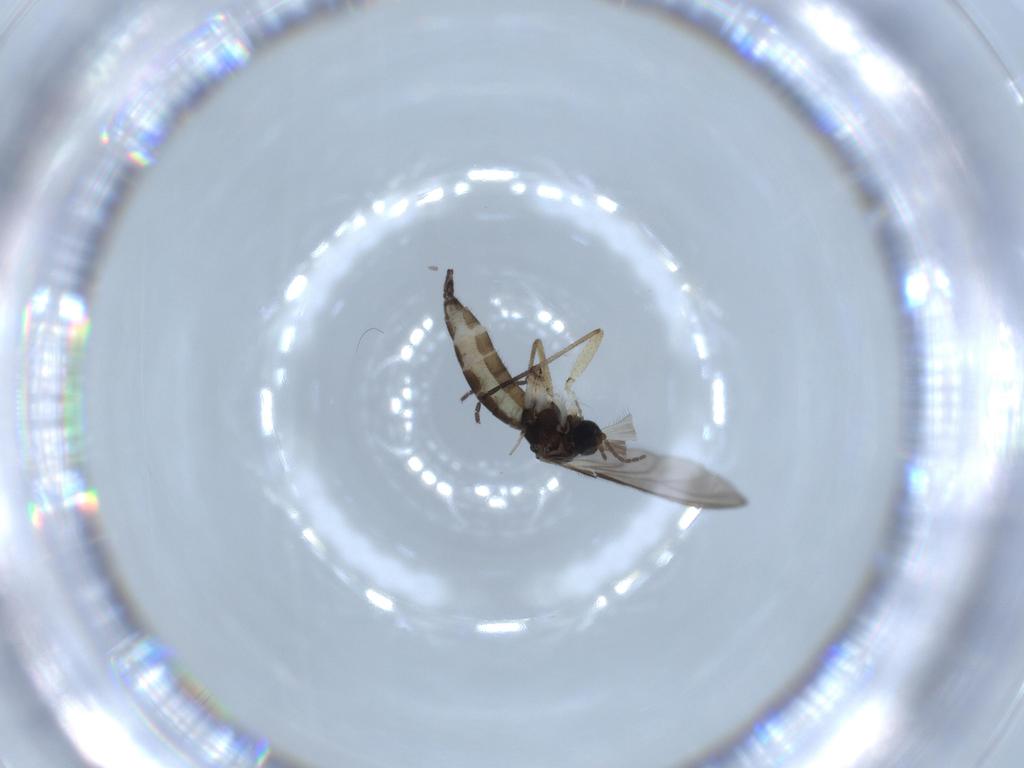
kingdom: Animalia
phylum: Arthropoda
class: Insecta
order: Diptera
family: Sciaridae
